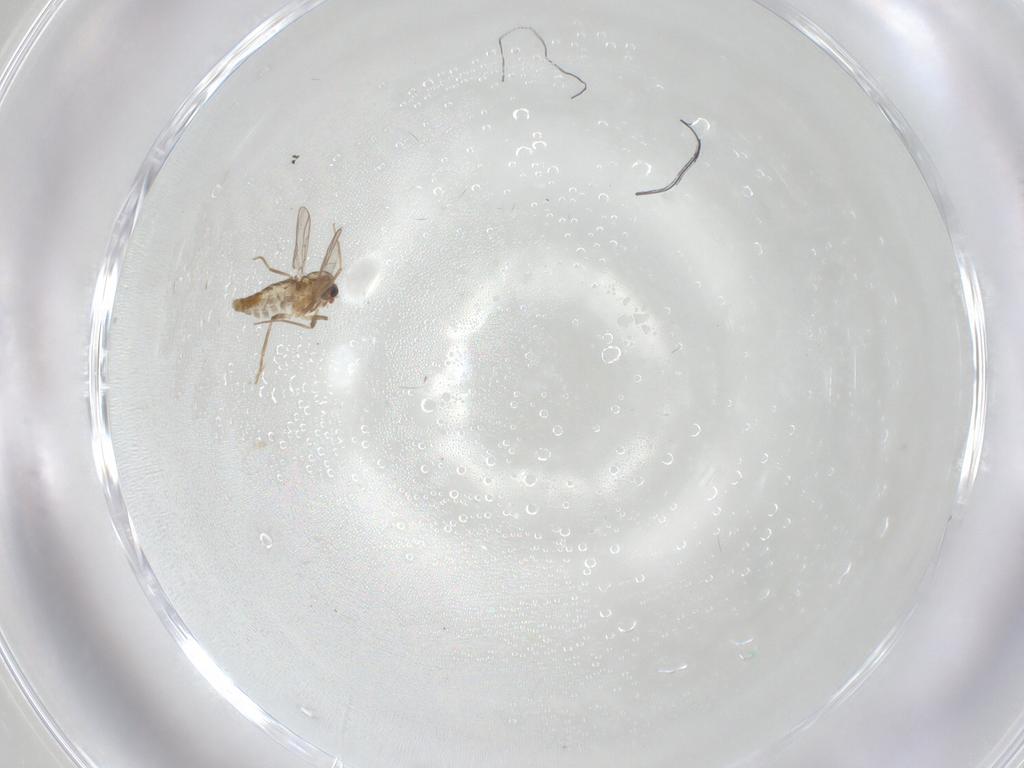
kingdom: Animalia
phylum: Arthropoda
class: Insecta
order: Diptera
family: Chironomidae
